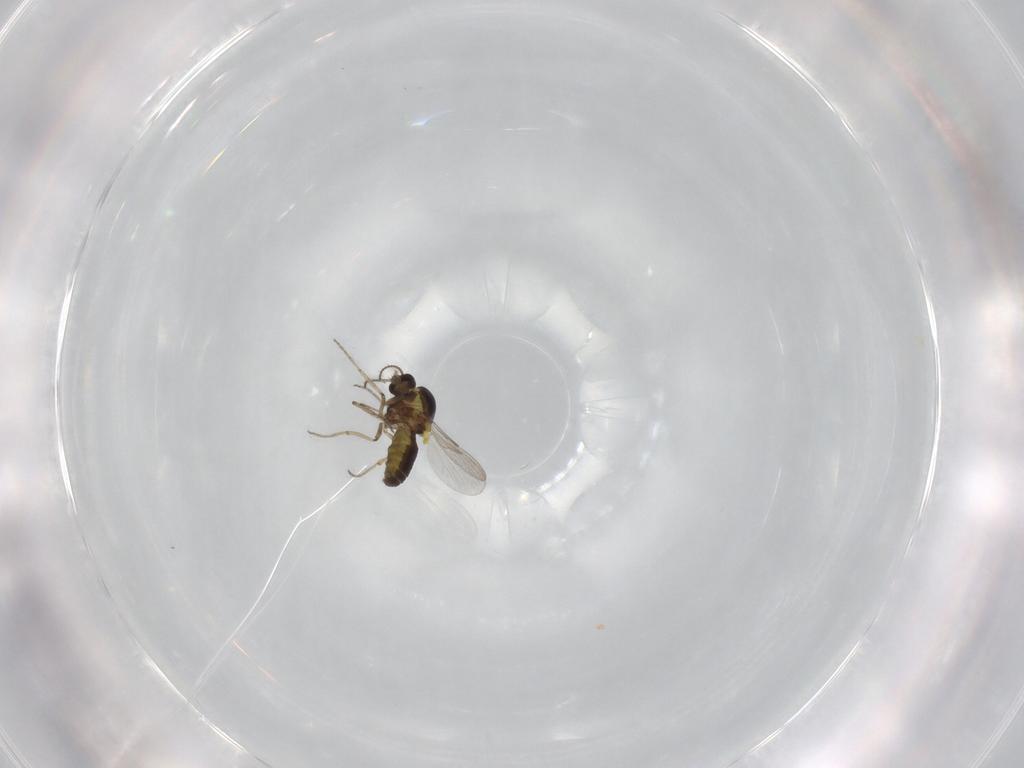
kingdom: Animalia
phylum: Arthropoda
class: Insecta
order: Diptera
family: Ceratopogonidae
